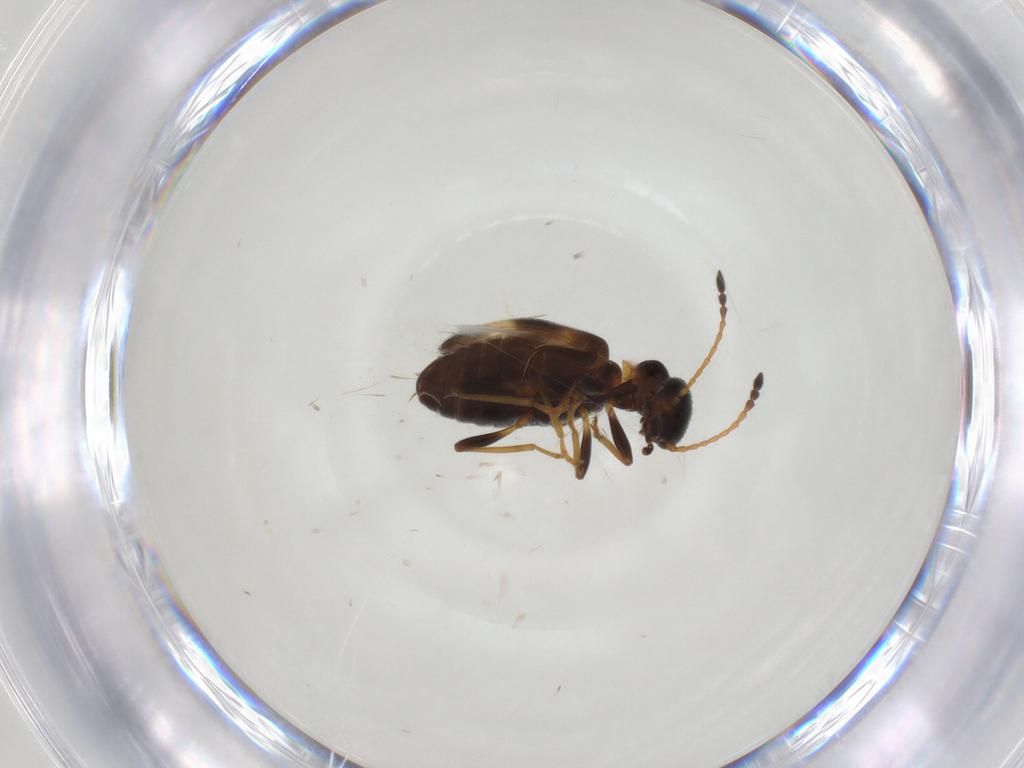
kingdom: Animalia
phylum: Arthropoda
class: Insecta
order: Coleoptera
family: Anthicidae
